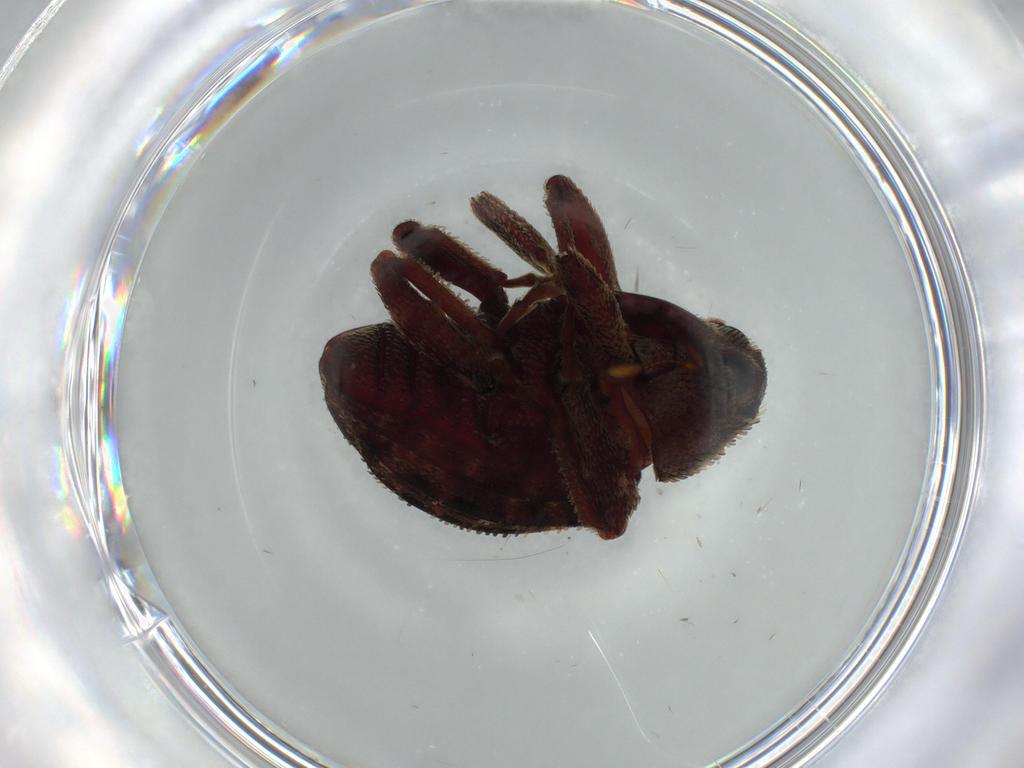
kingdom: Animalia
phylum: Arthropoda
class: Insecta
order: Coleoptera
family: Curculionidae
